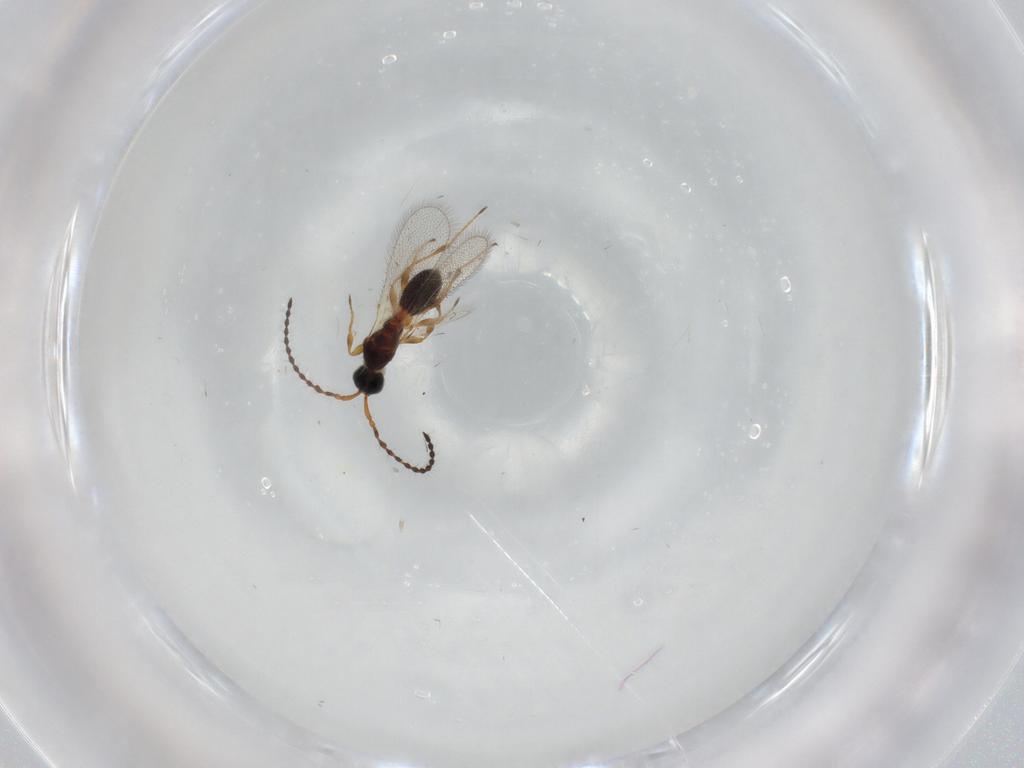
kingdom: Animalia
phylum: Arthropoda
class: Insecta
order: Hymenoptera
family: Diapriidae
